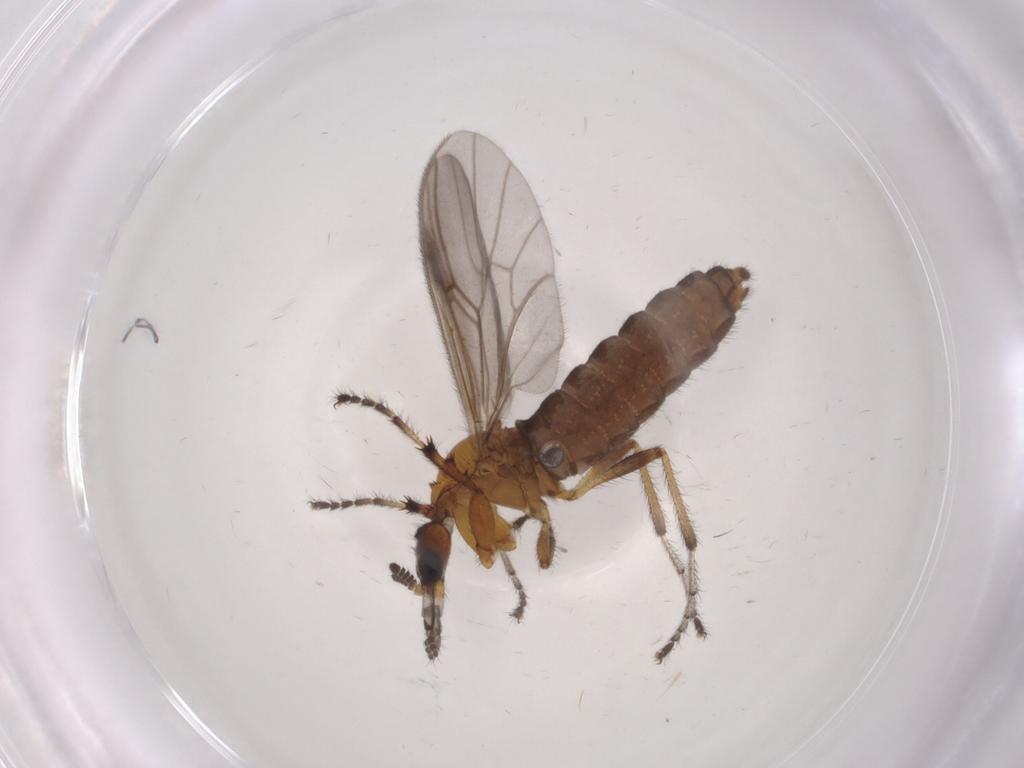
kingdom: Animalia
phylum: Arthropoda
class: Insecta
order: Diptera
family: Bibionidae
